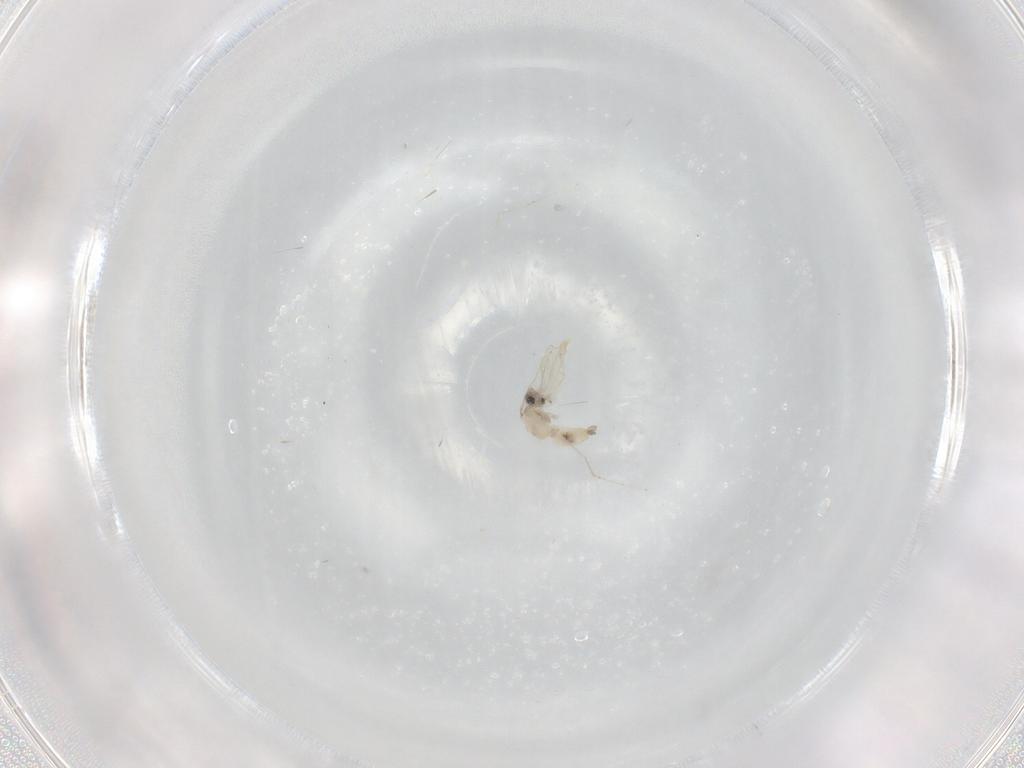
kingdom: Animalia
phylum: Arthropoda
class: Insecta
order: Diptera
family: Cecidomyiidae
